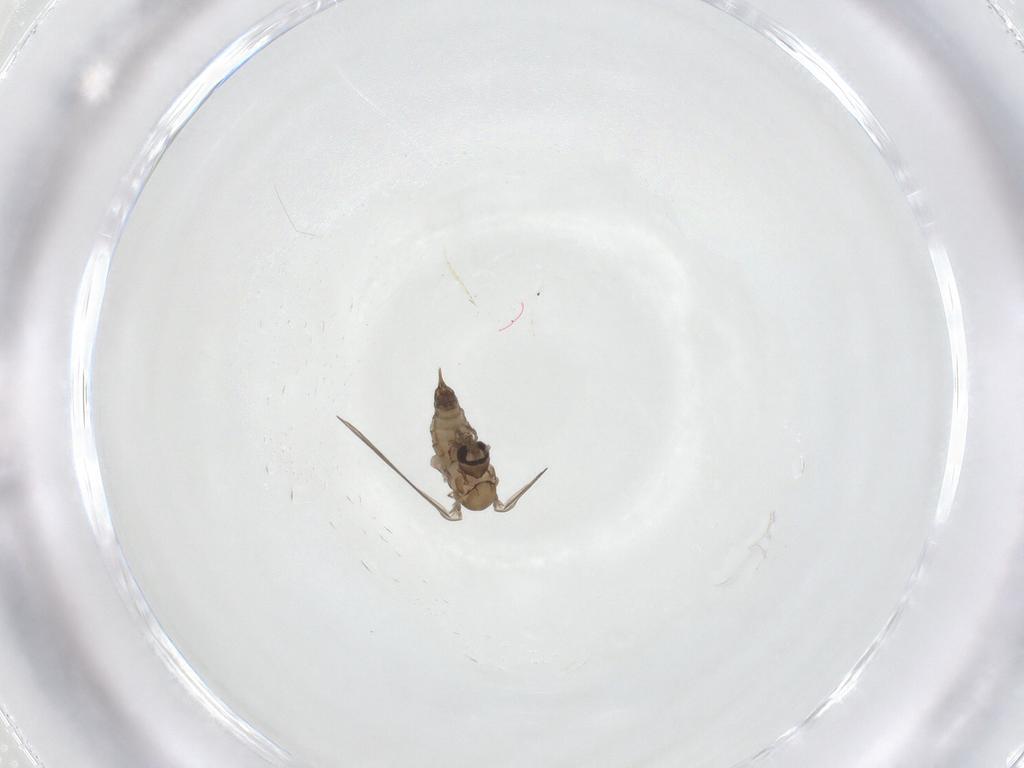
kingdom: Animalia
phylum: Arthropoda
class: Insecta
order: Diptera
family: Psychodidae
